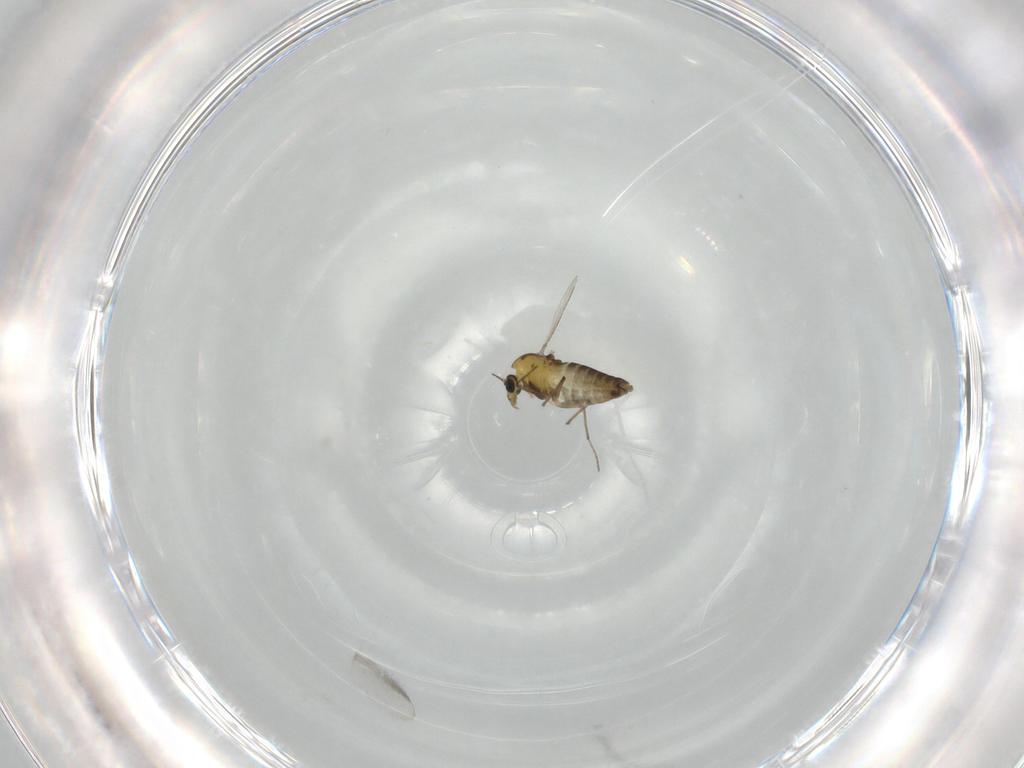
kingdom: Animalia
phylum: Arthropoda
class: Insecta
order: Diptera
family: Chironomidae
